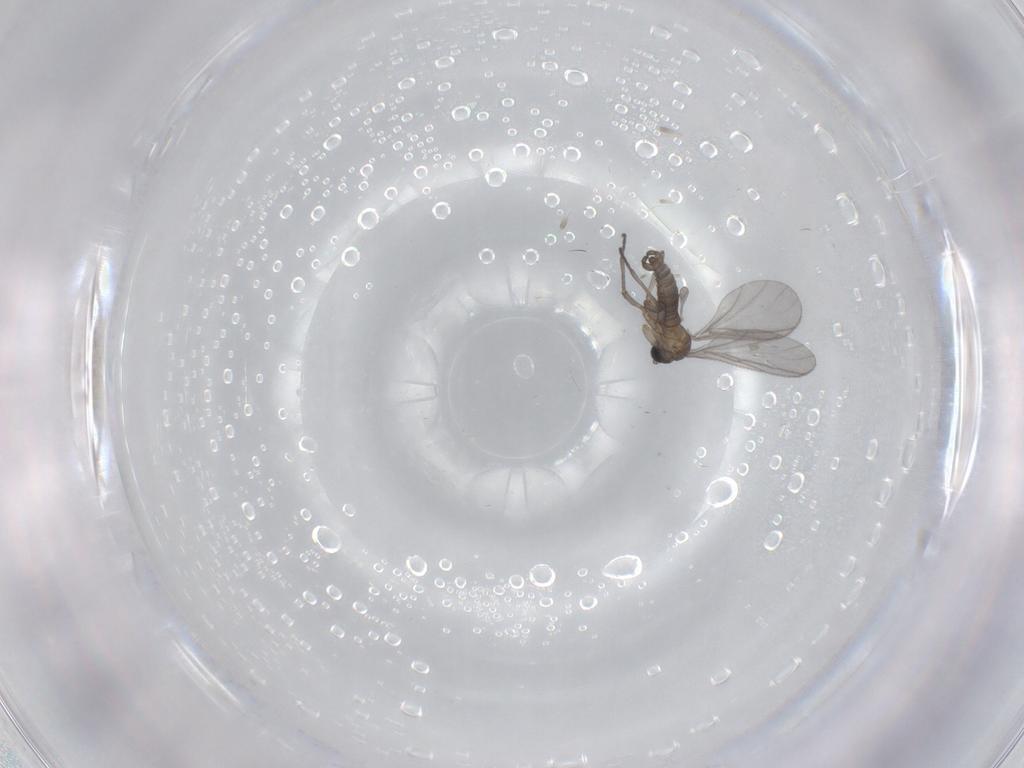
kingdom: Animalia
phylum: Arthropoda
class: Insecta
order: Diptera
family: Sciaridae
